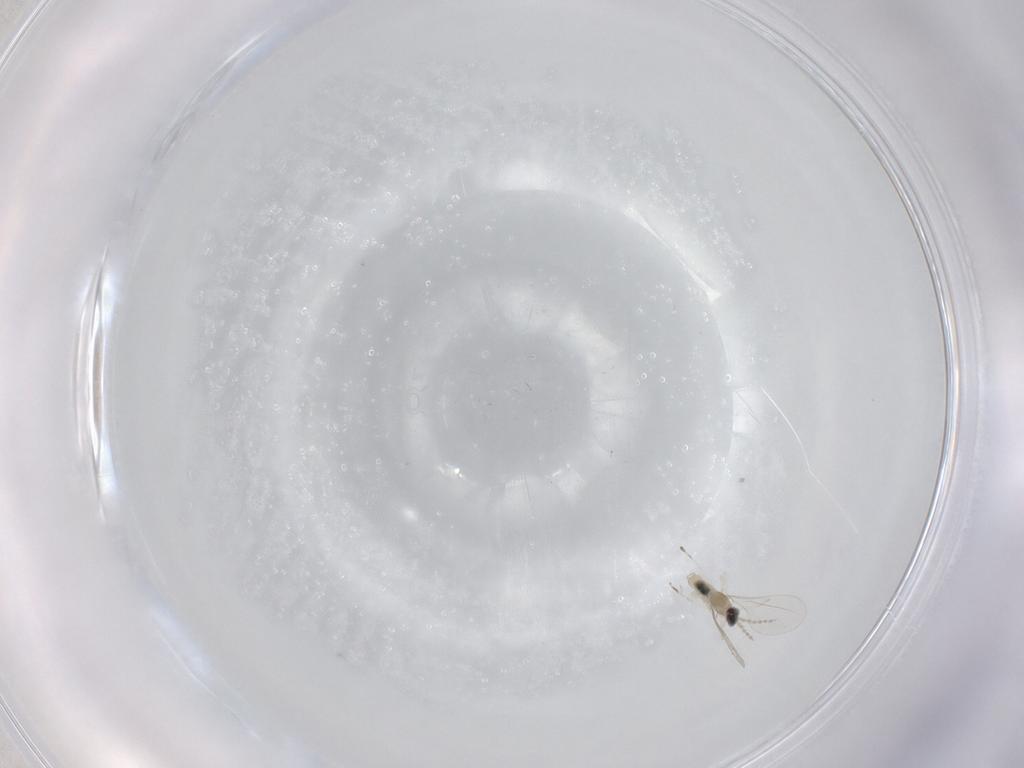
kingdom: Animalia
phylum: Arthropoda
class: Insecta
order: Diptera
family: Cecidomyiidae
